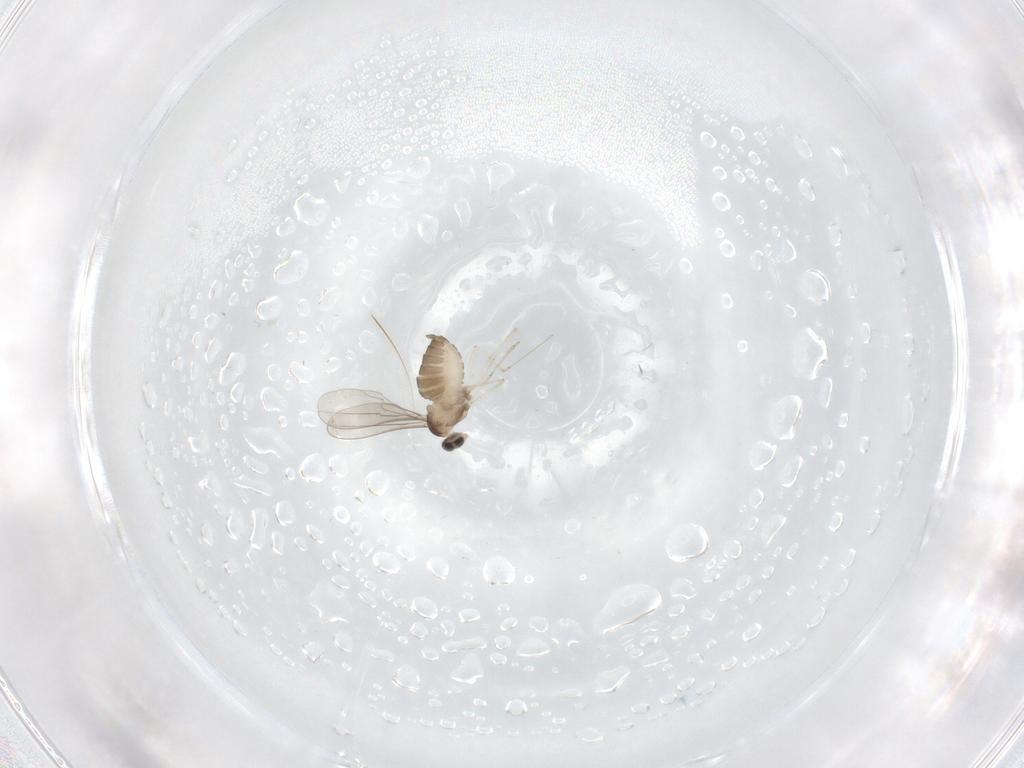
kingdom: Animalia
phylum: Arthropoda
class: Insecta
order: Diptera
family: Cecidomyiidae
